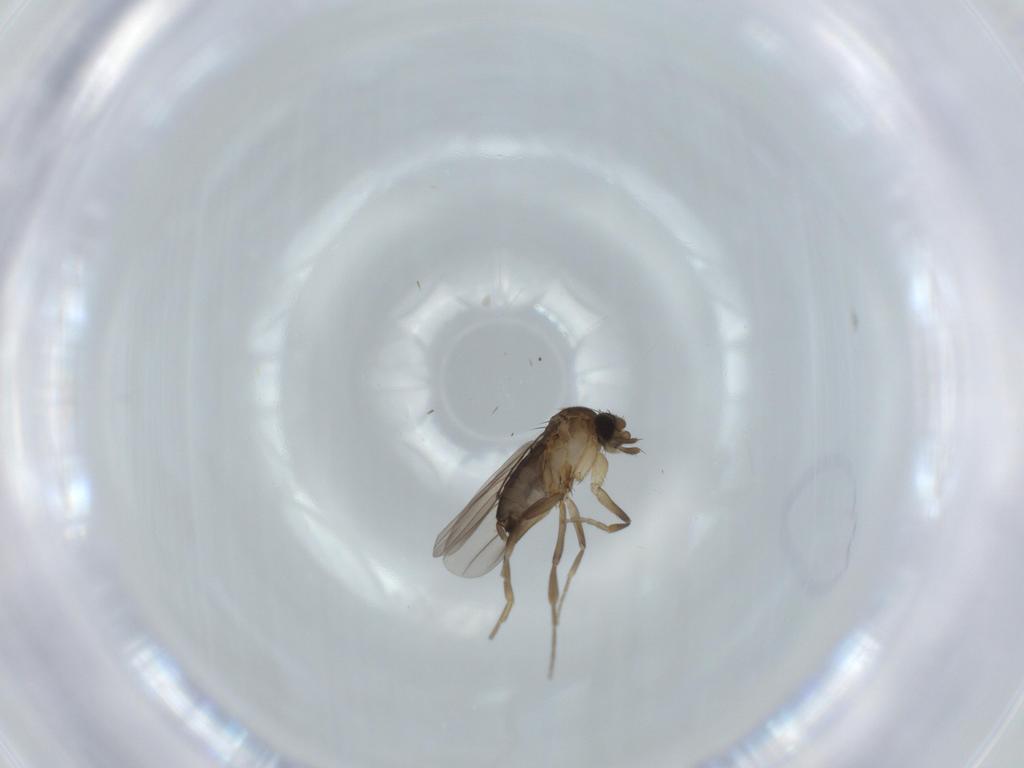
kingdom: Animalia
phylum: Arthropoda
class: Insecta
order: Diptera
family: Phoridae
